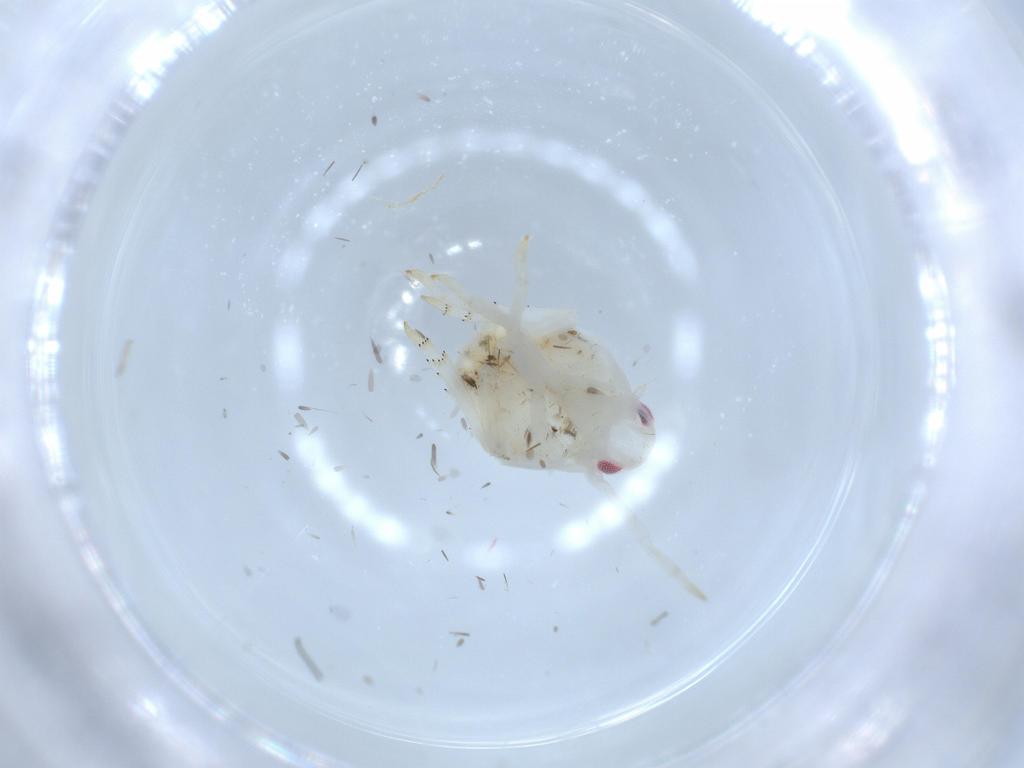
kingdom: Animalia
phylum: Arthropoda
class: Insecta
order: Hemiptera
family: Flatidae
